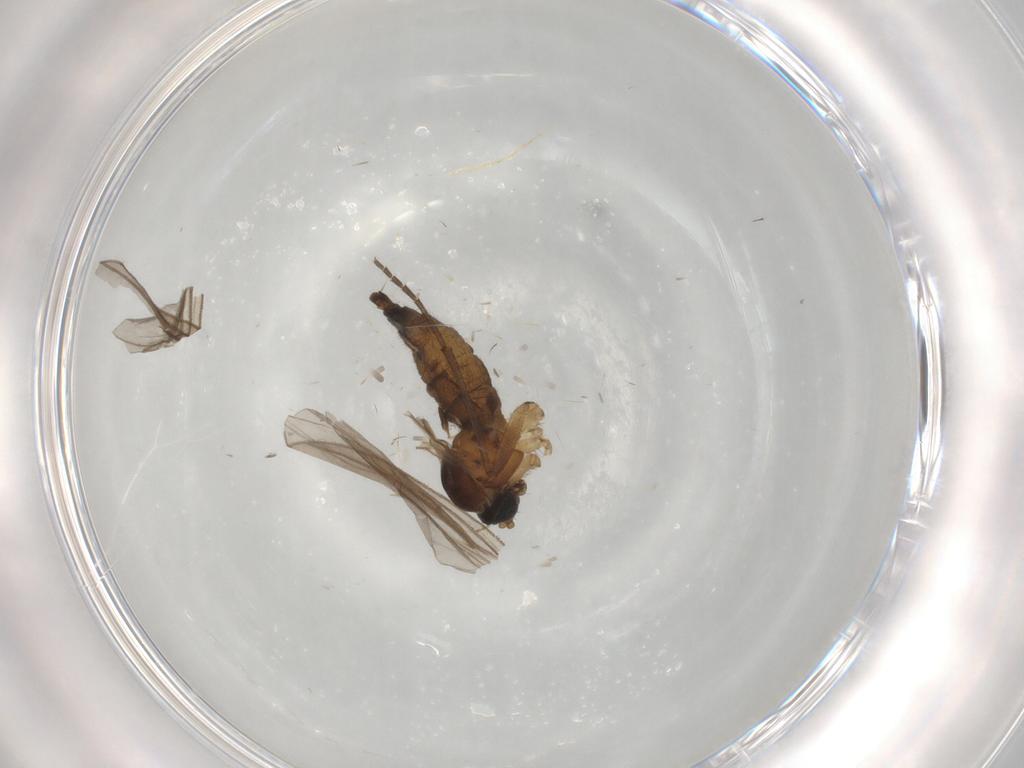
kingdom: Animalia
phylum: Arthropoda
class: Insecta
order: Diptera
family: Sciaridae
